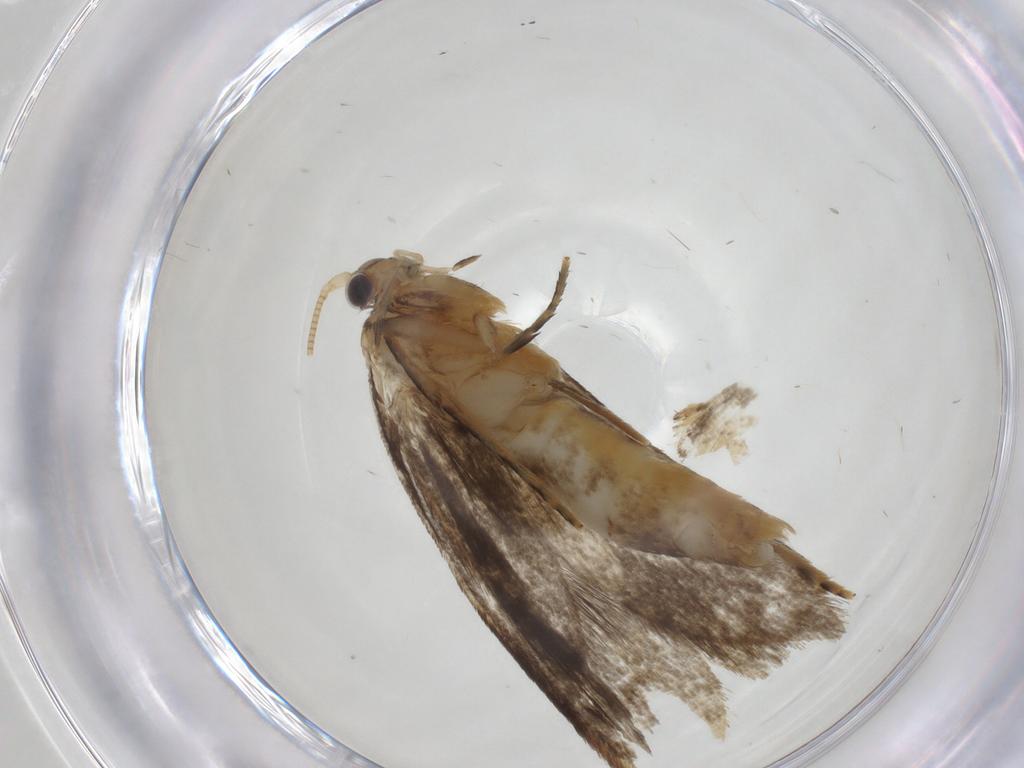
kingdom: Animalia
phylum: Arthropoda
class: Insecta
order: Lepidoptera
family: Tineidae
